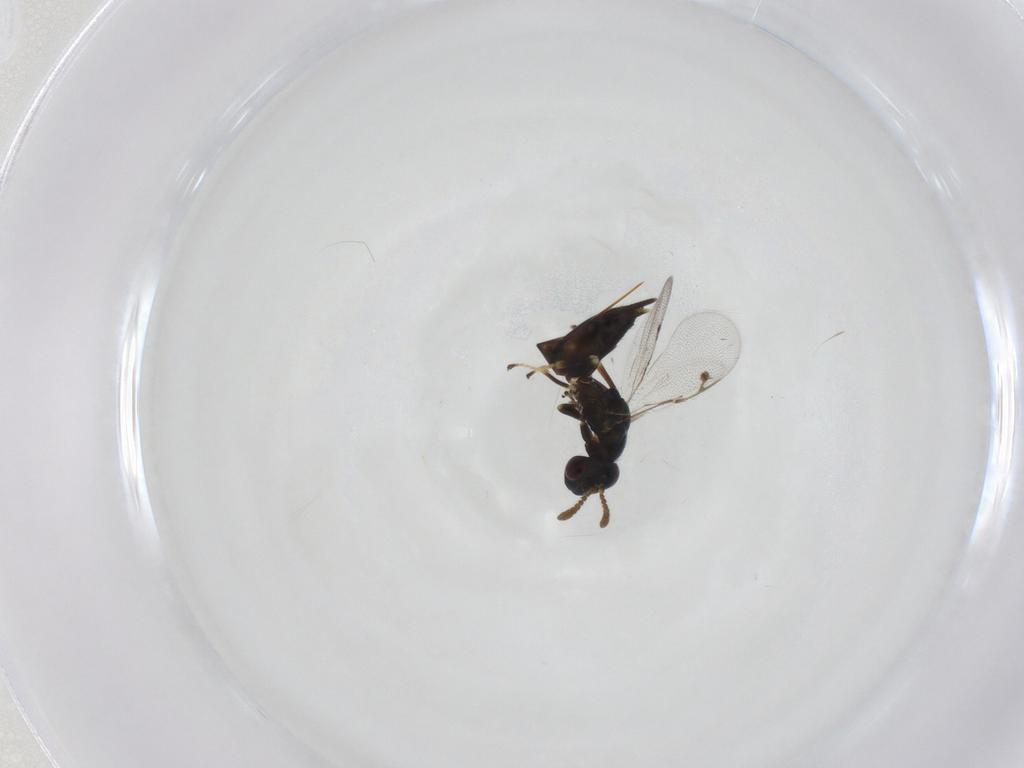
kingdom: Animalia
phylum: Arthropoda
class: Insecta
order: Hymenoptera
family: Pirenidae
